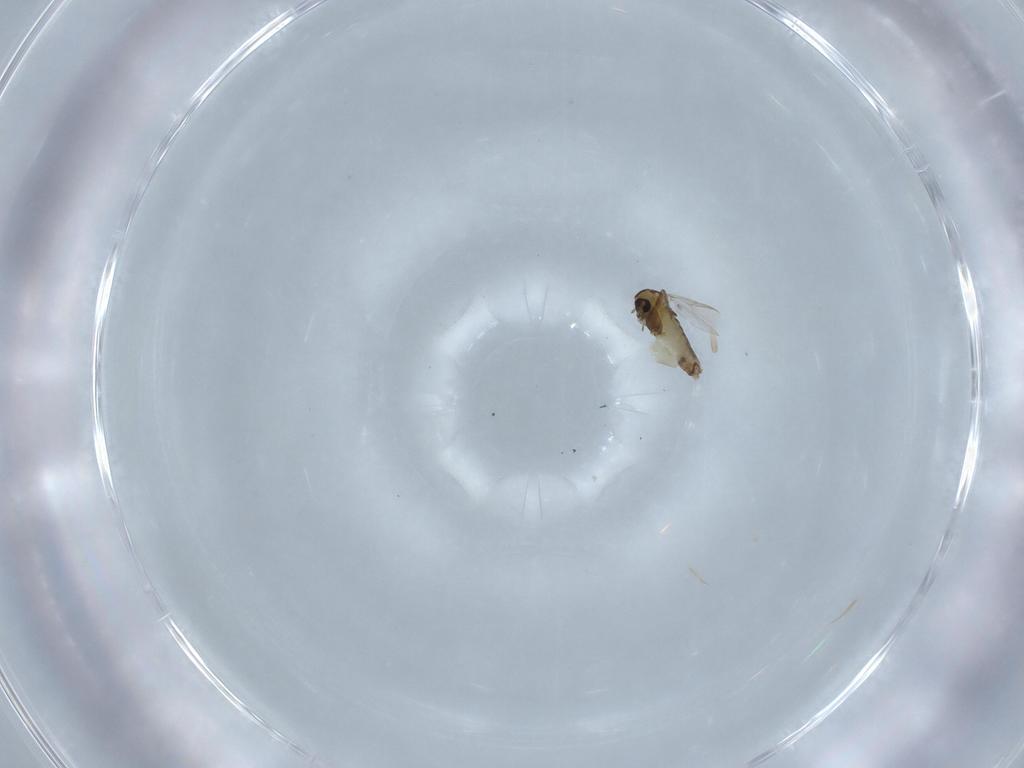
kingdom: Animalia
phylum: Arthropoda
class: Insecta
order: Diptera
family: Chironomidae
